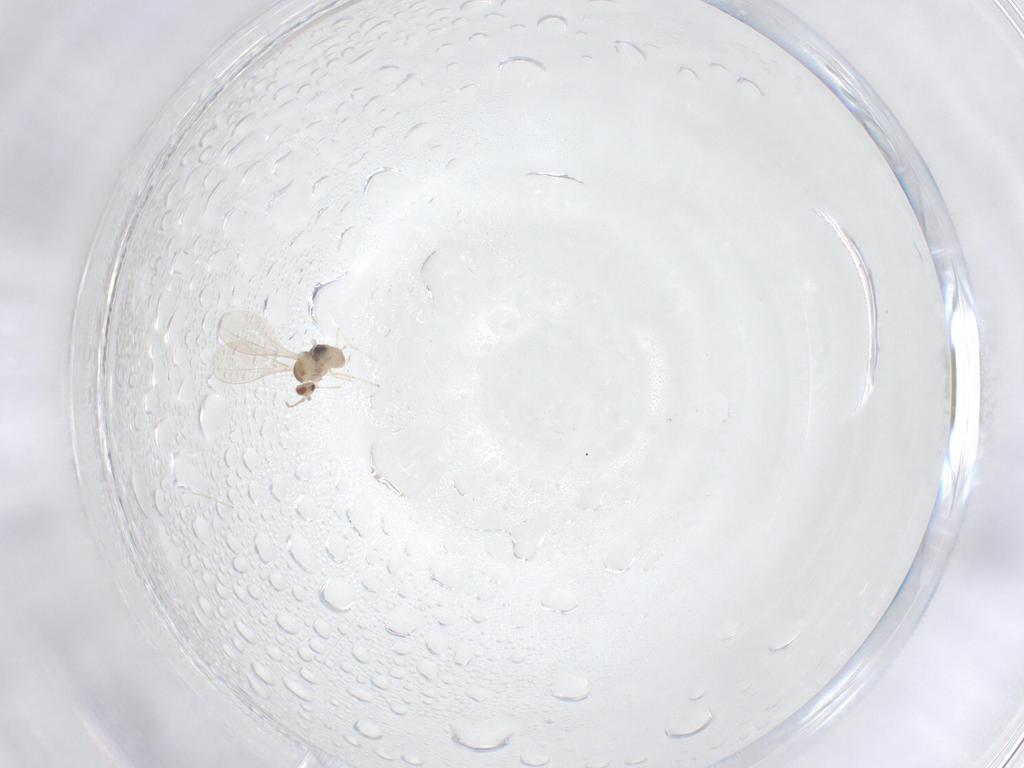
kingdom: Animalia
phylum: Arthropoda
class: Insecta
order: Diptera
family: Cecidomyiidae
